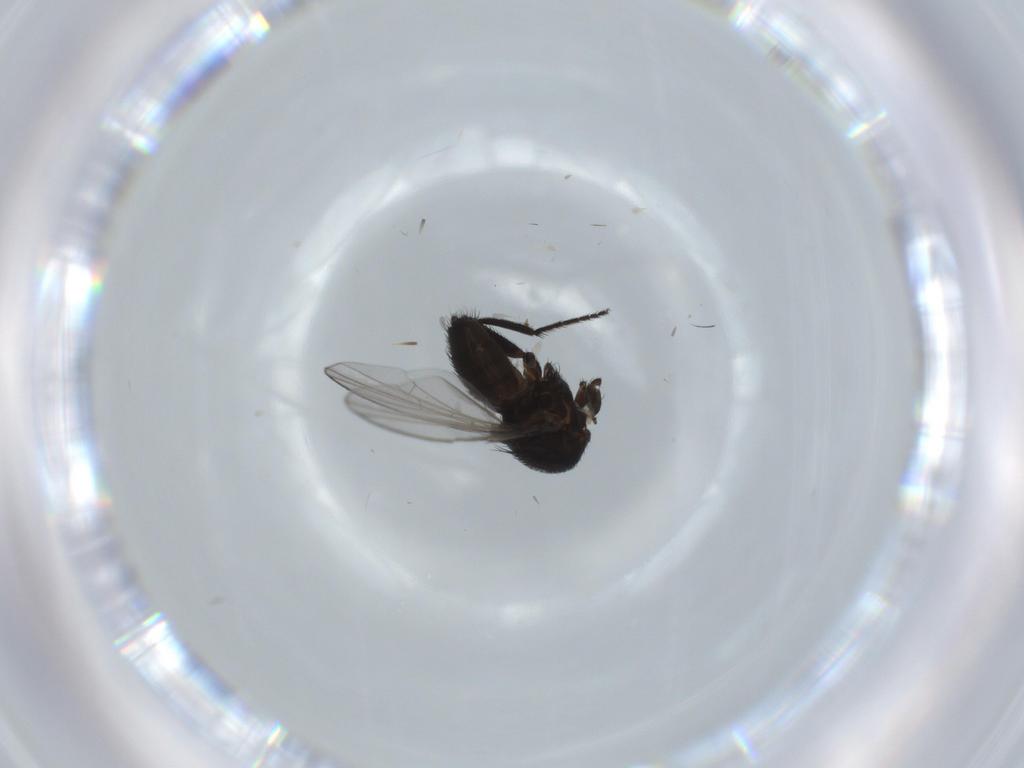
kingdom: Animalia
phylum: Arthropoda
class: Insecta
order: Diptera
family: Milichiidae
